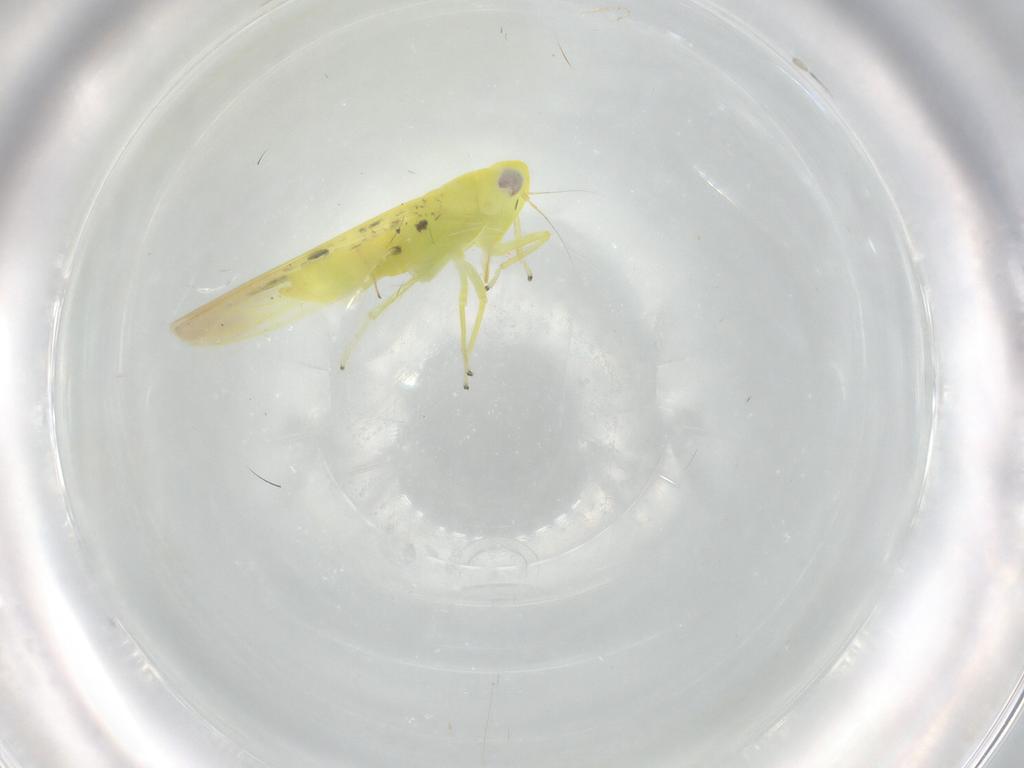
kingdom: Animalia
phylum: Arthropoda
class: Insecta
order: Hemiptera
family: Cicadellidae
